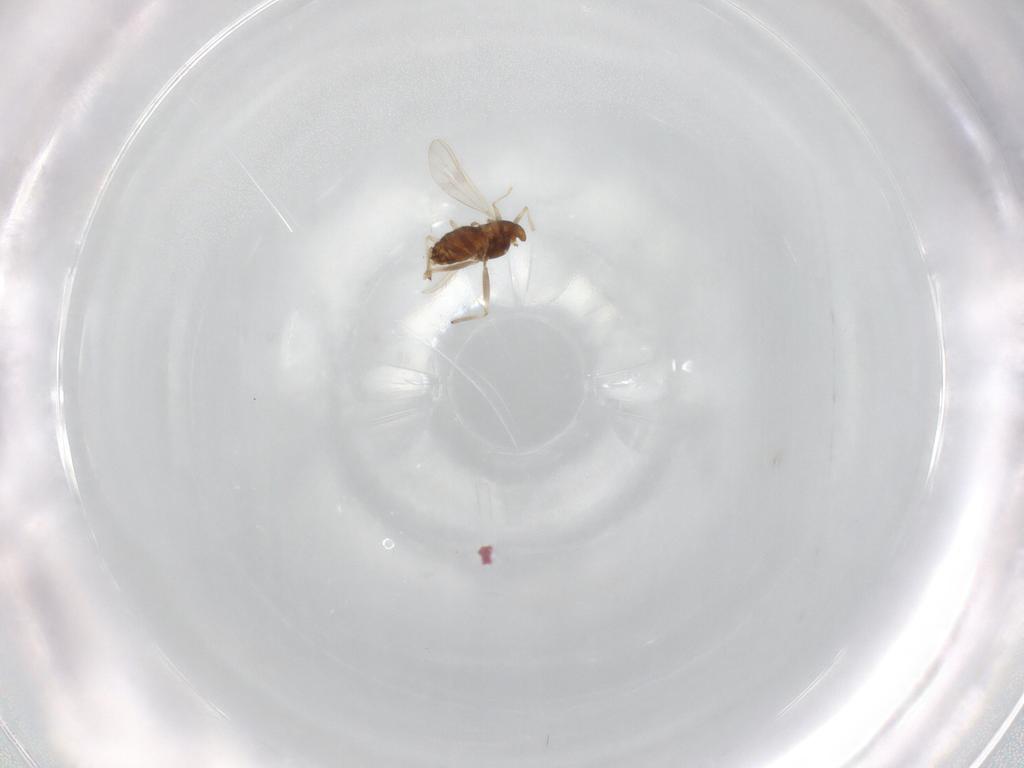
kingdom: Animalia
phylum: Arthropoda
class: Insecta
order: Diptera
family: Chironomidae
